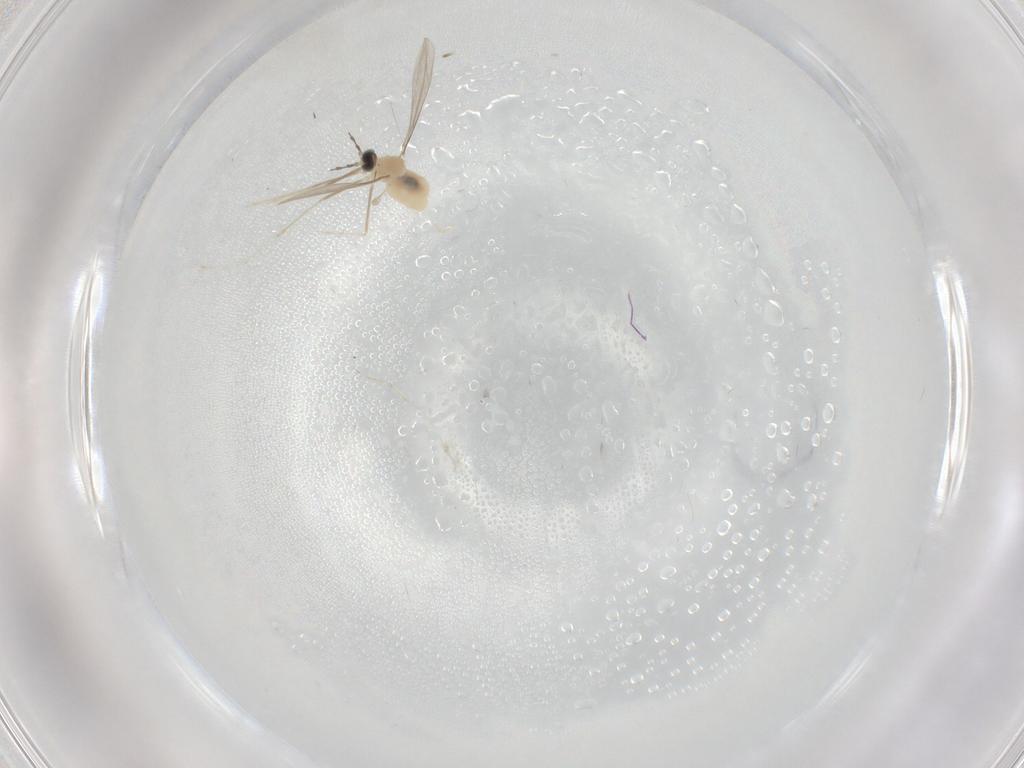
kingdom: Animalia
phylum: Arthropoda
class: Insecta
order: Diptera
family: Cecidomyiidae
